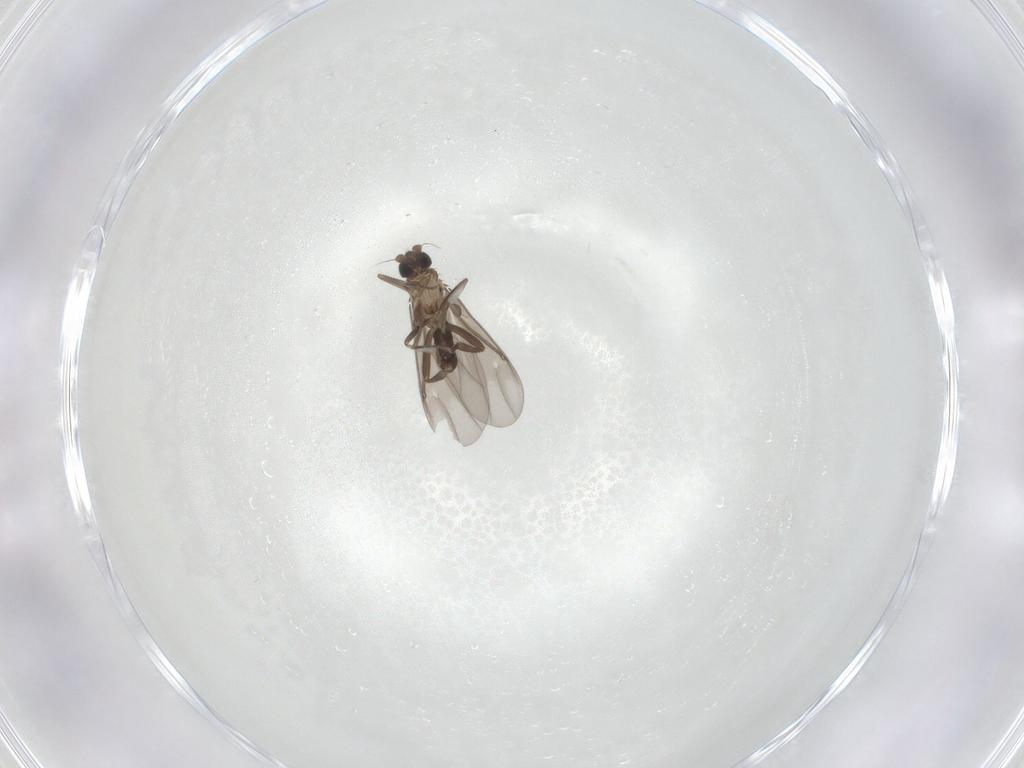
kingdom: Animalia
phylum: Arthropoda
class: Insecta
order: Diptera
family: Phoridae
